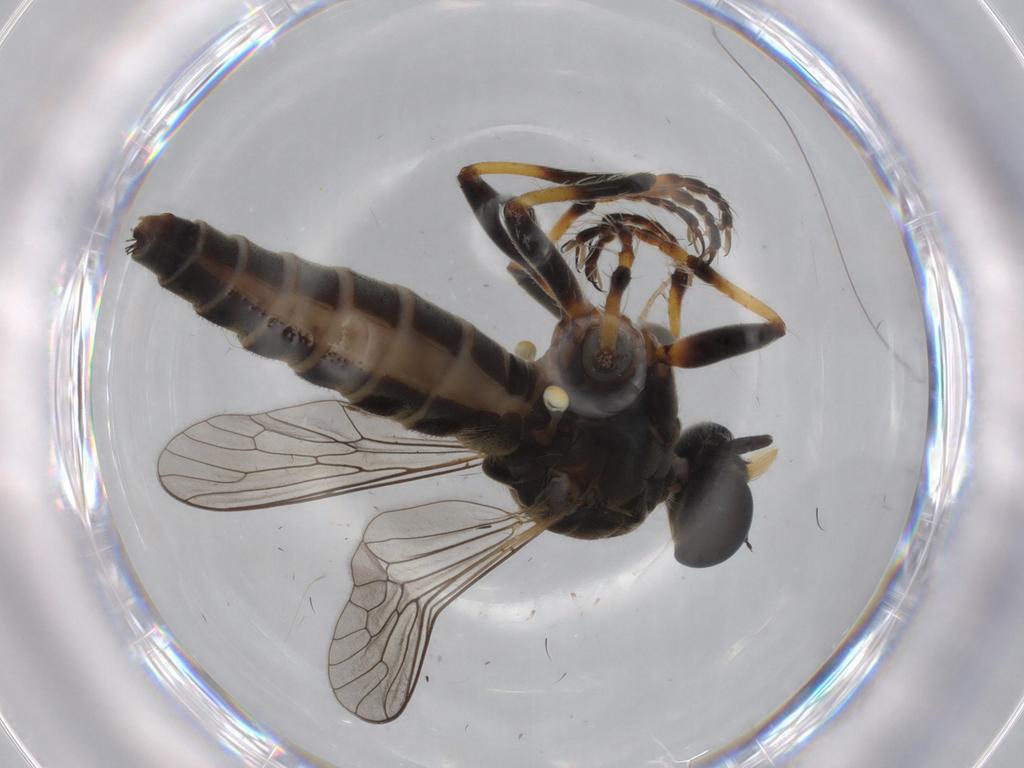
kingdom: Animalia
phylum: Arthropoda
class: Insecta
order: Diptera
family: Muscidae
